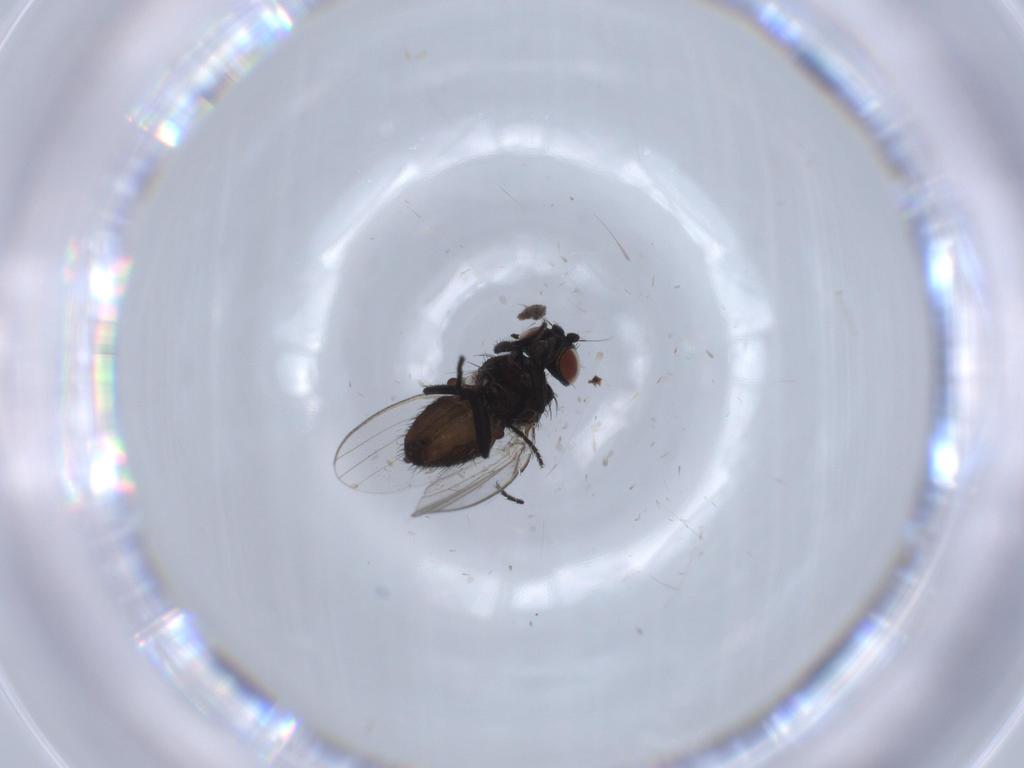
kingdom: Animalia
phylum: Arthropoda
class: Insecta
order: Diptera
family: Milichiidae
